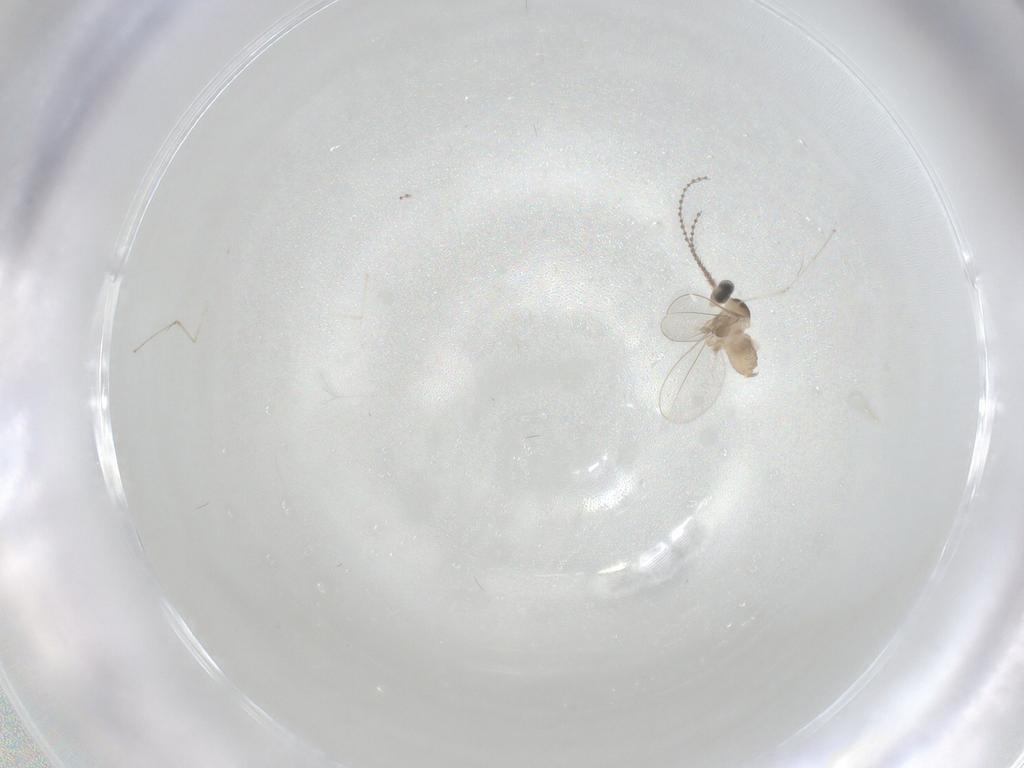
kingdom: Animalia
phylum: Arthropoda
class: Insecta
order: Diptera
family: Cecidomyiidae
